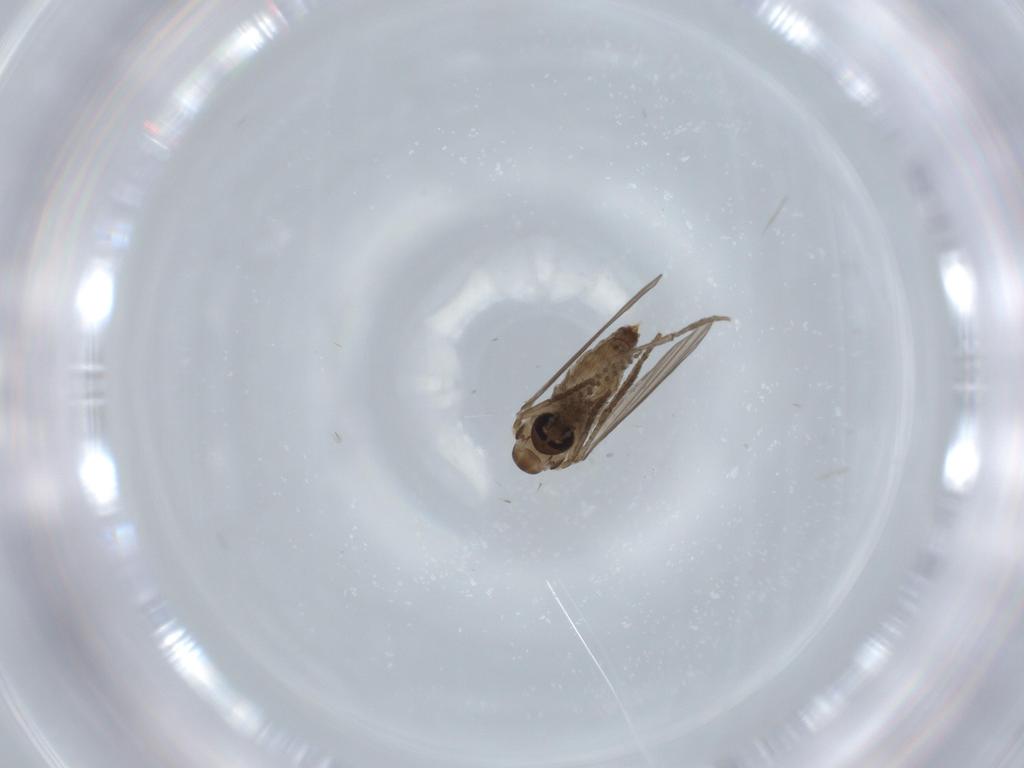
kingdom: Animalia
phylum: Arthropoda
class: Insecta
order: Diptera
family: Psychodidae
